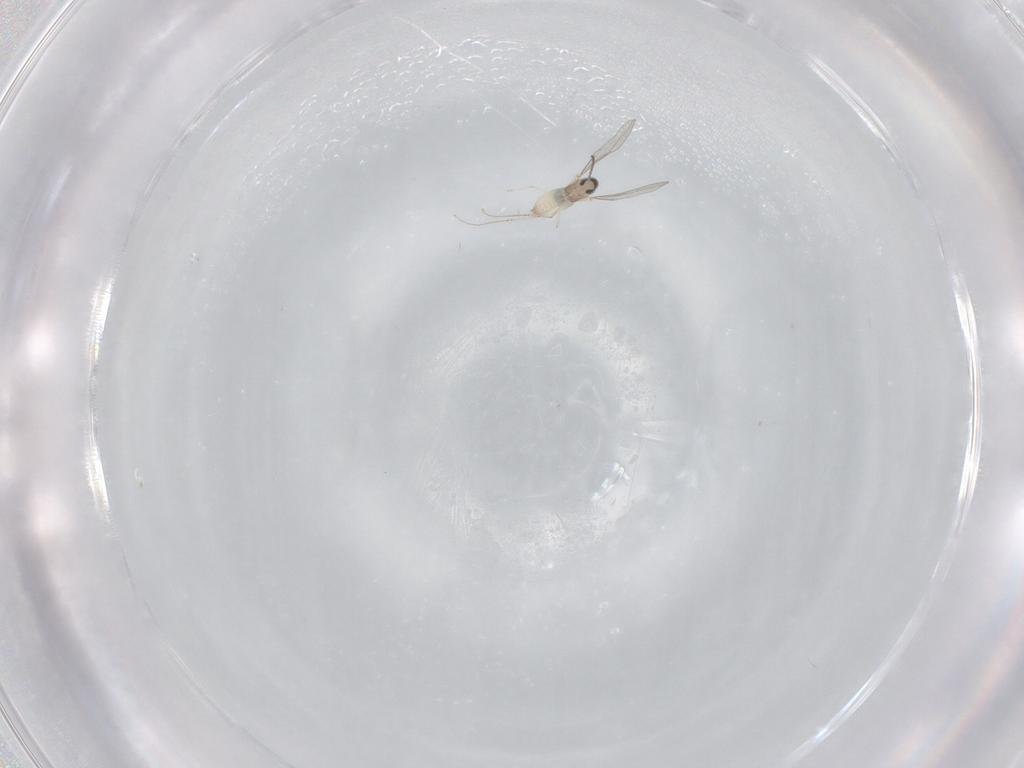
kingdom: Animalia
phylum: Arthropoda
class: Insecta
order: Diptera
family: Cecidomyiidae
